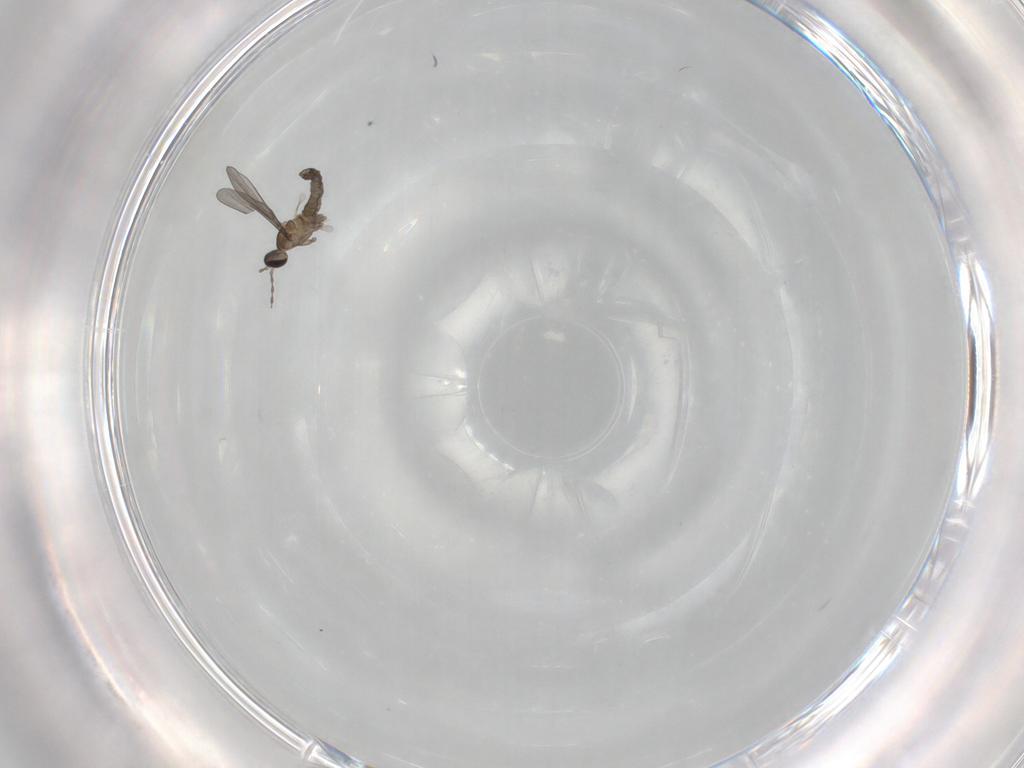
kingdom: Animalia
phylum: Arthropoda
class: Insecta
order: Diptera
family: Cecidomyiidae
